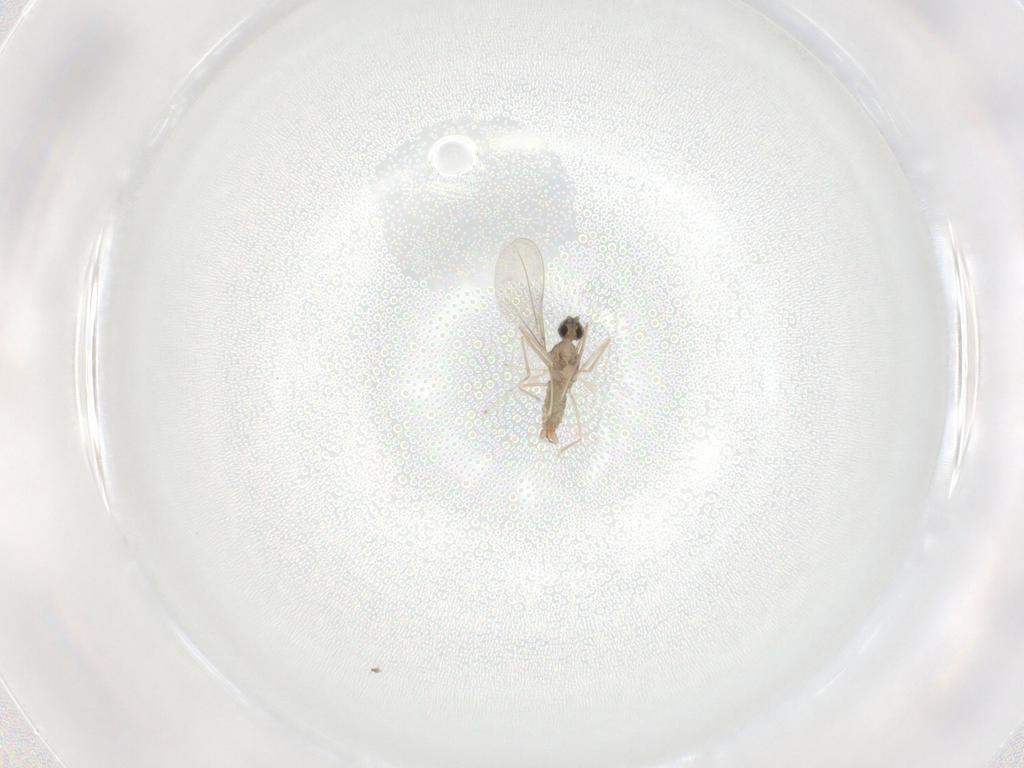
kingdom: Animalia
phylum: Arthropoda
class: Insecta
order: Diptera
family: Cecidomyiidae
